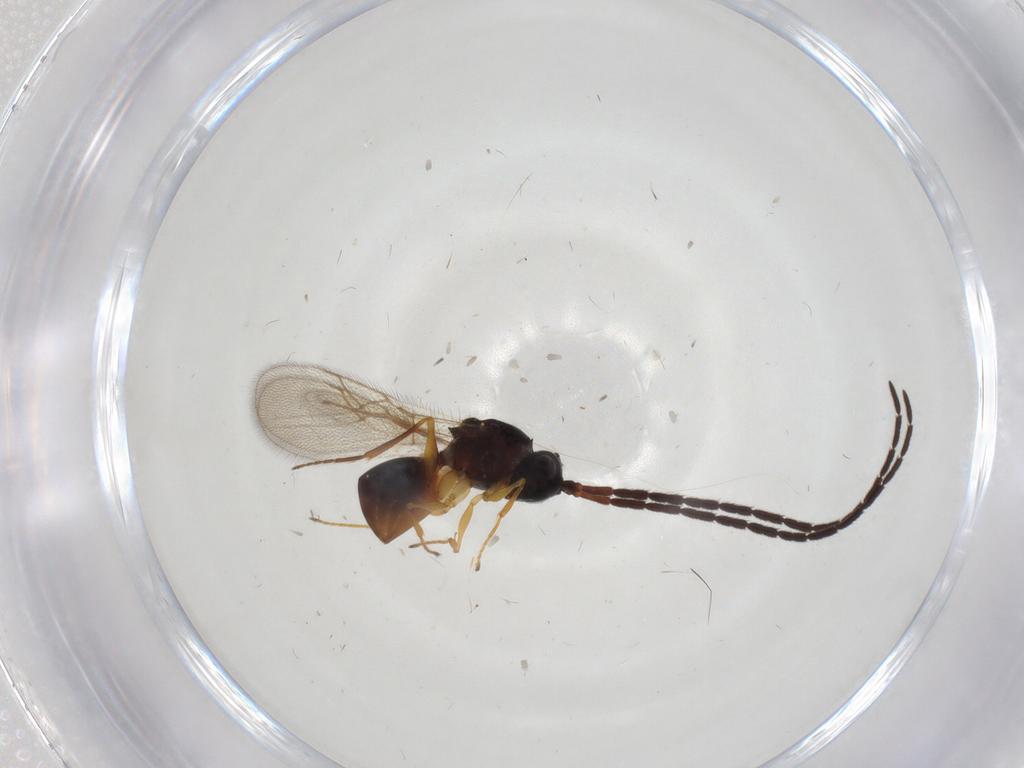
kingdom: Animalia
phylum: Arthropoda
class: Insecta
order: Hymenoptera
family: Figitidae
